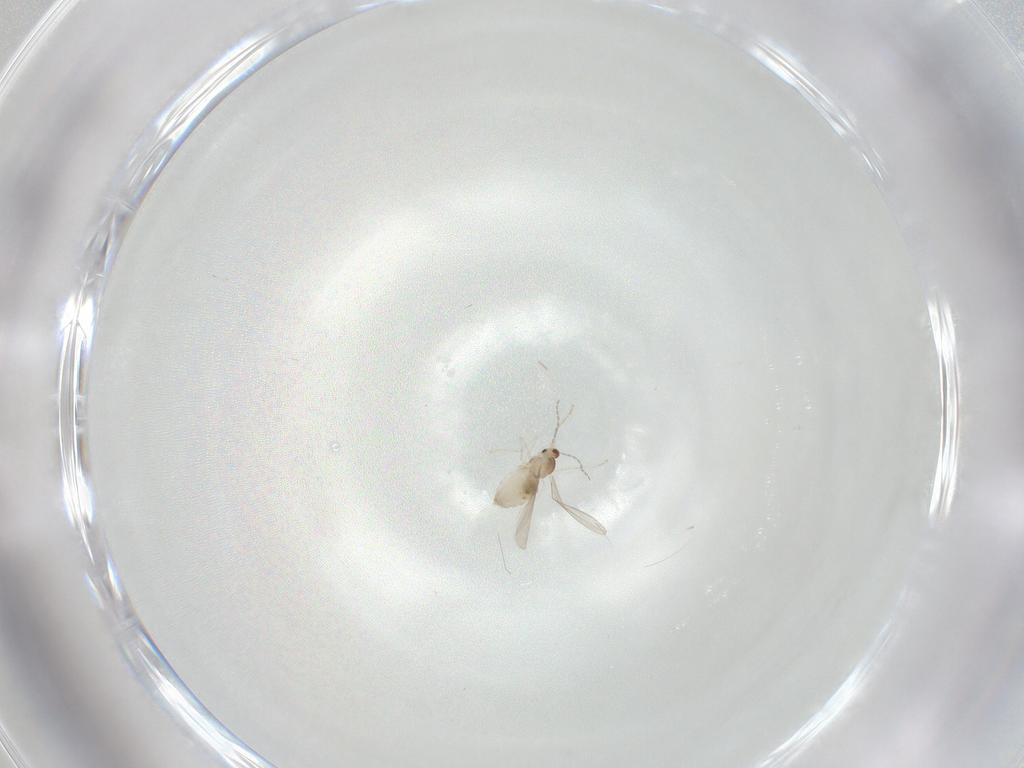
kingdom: Animalia
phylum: Arthropoda
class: Insecta
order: Diptera
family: Cecidomyiidae
